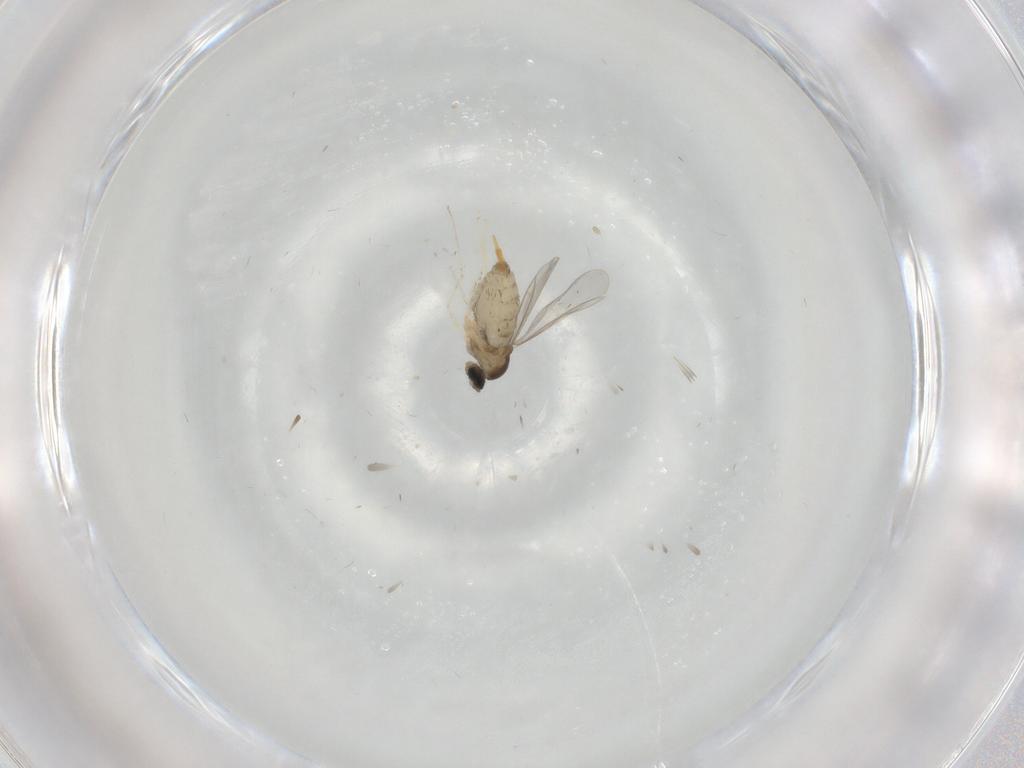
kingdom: Animalia
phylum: Arthropoda
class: Insecta
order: Diptera
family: Cecidomyiidae
